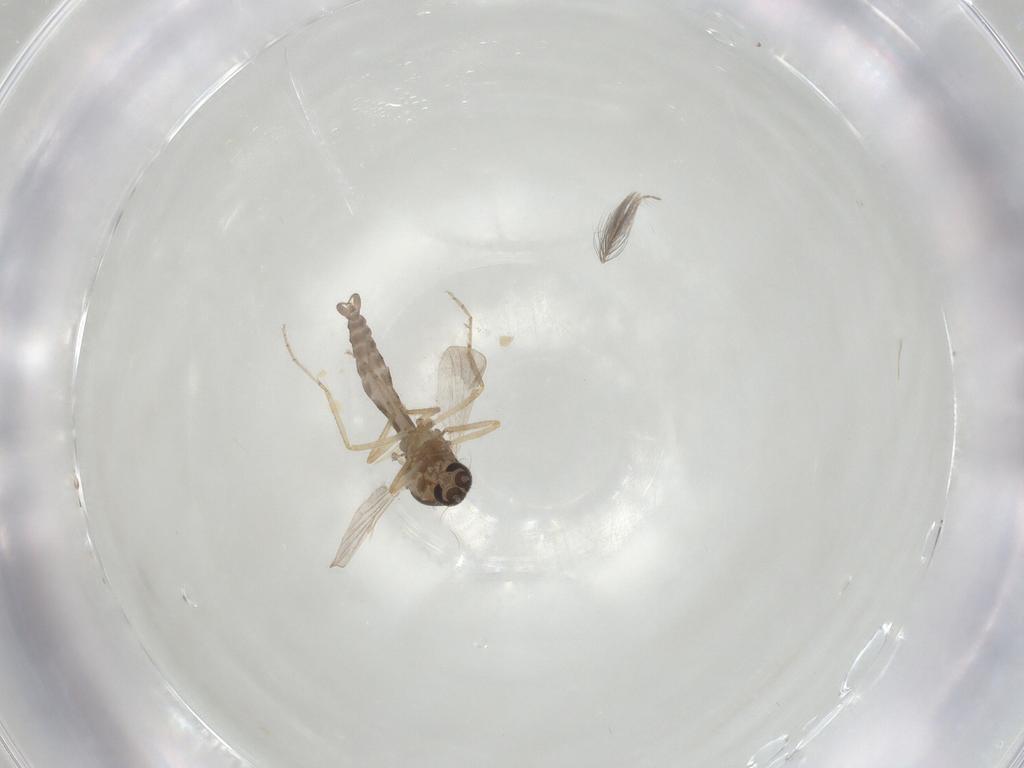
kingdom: Animalia
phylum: Arthropoda
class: Insecta
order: Diptera
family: Ceratopogonidae
